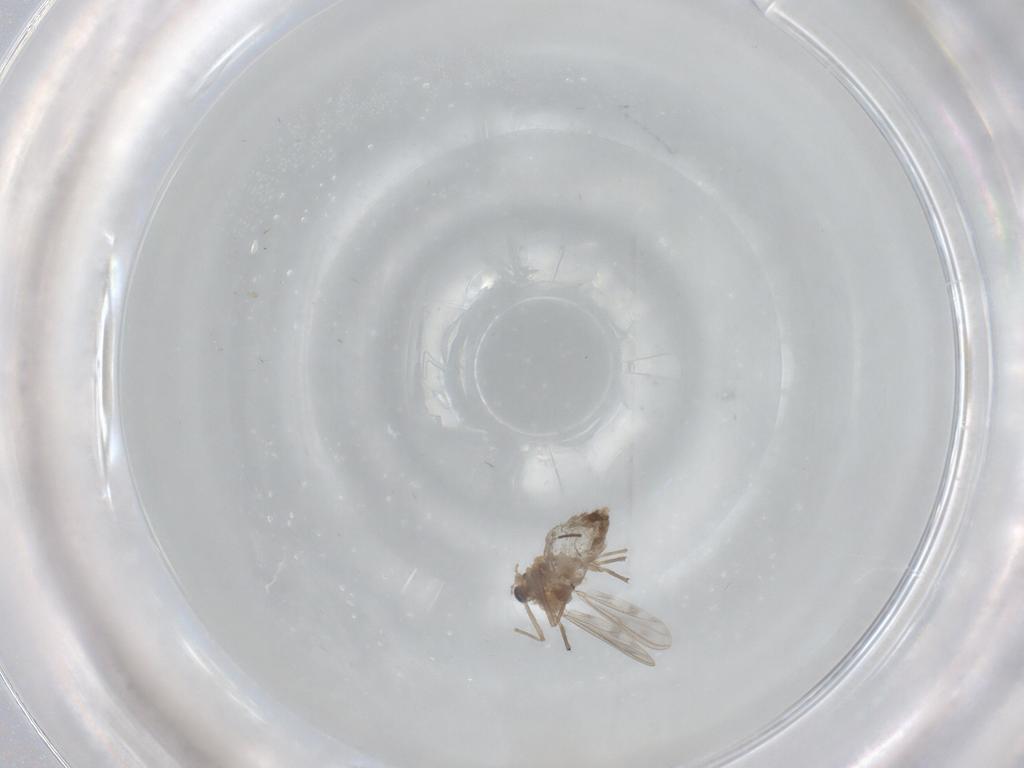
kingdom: Animalia
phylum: Arthropoda
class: Insecta
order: Diptera
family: Chironomidae
